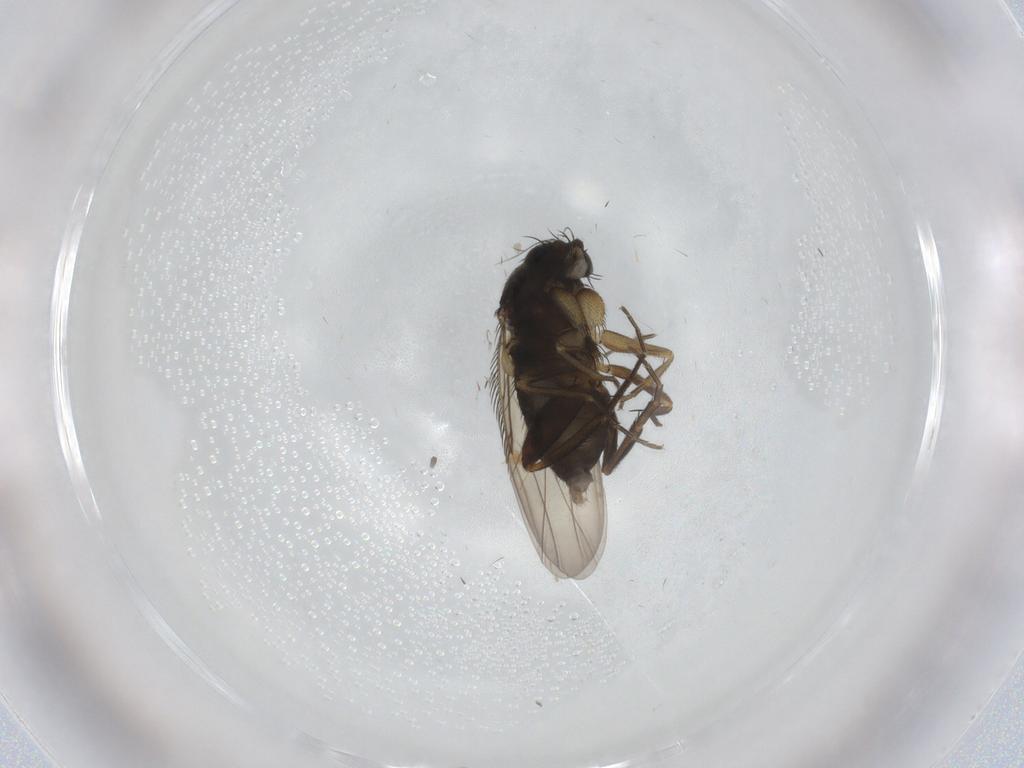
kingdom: Animalia
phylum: Arthropoda
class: Insecta
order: Diptera
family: Phoridae
